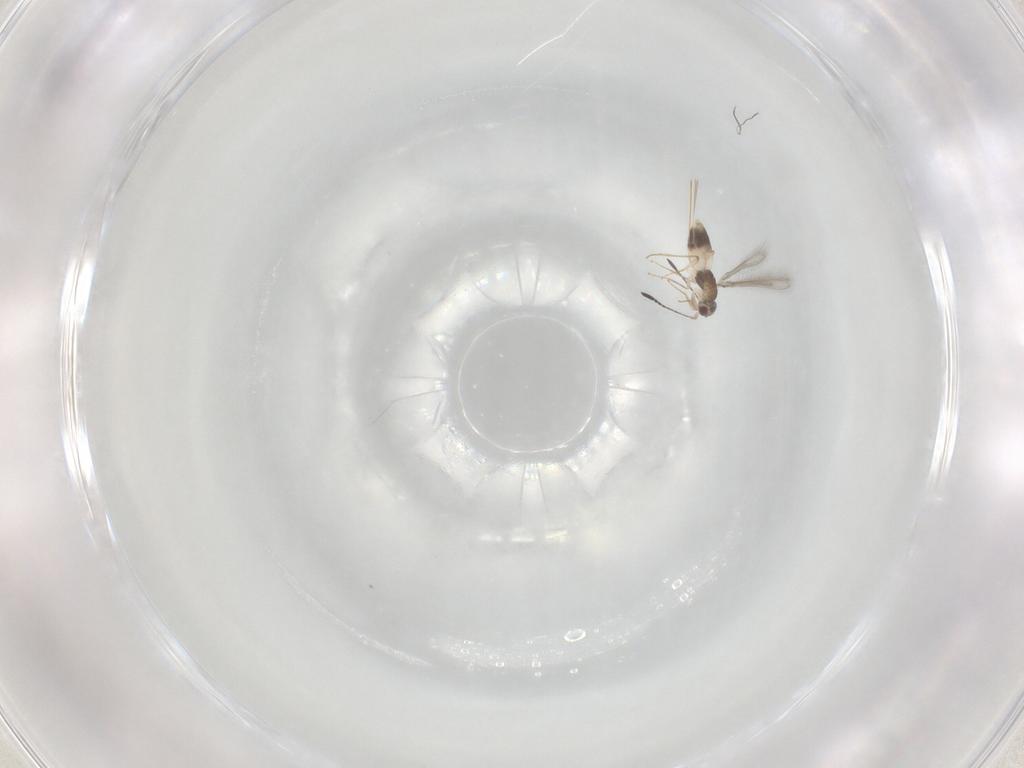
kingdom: Animalia
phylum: Arthropoda
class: Insecta
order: Hymenoptera
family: Mymaridae
